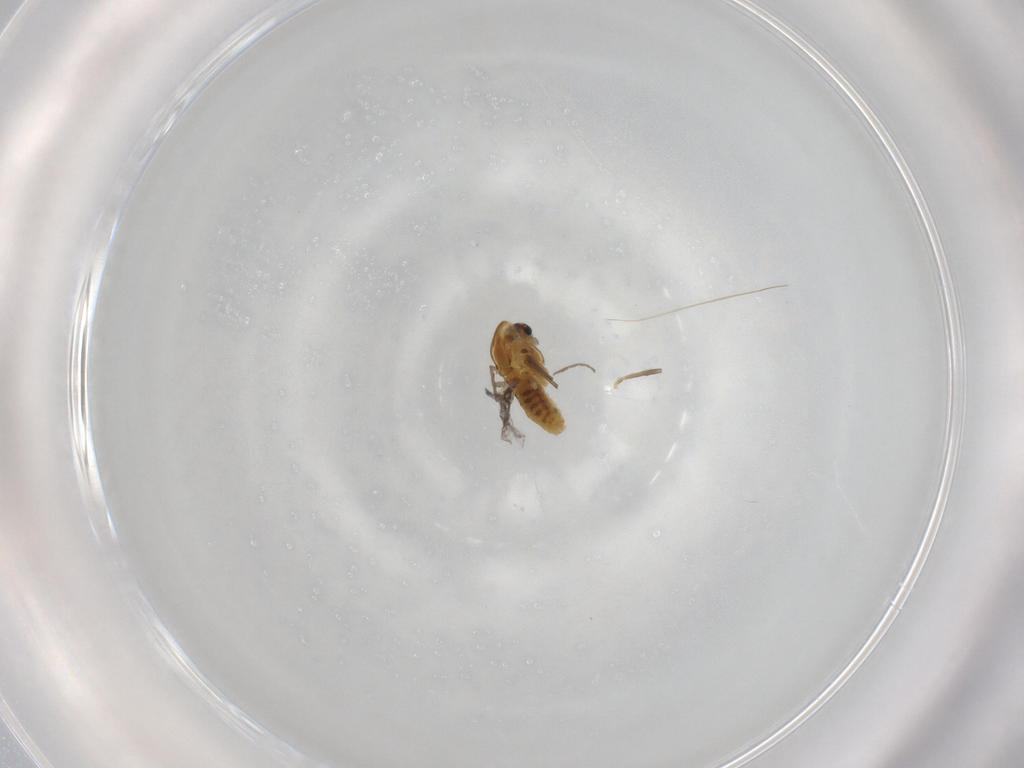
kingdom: Animalia
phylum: Arthropoda
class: Insecta
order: Diptera
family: Chironomidae
